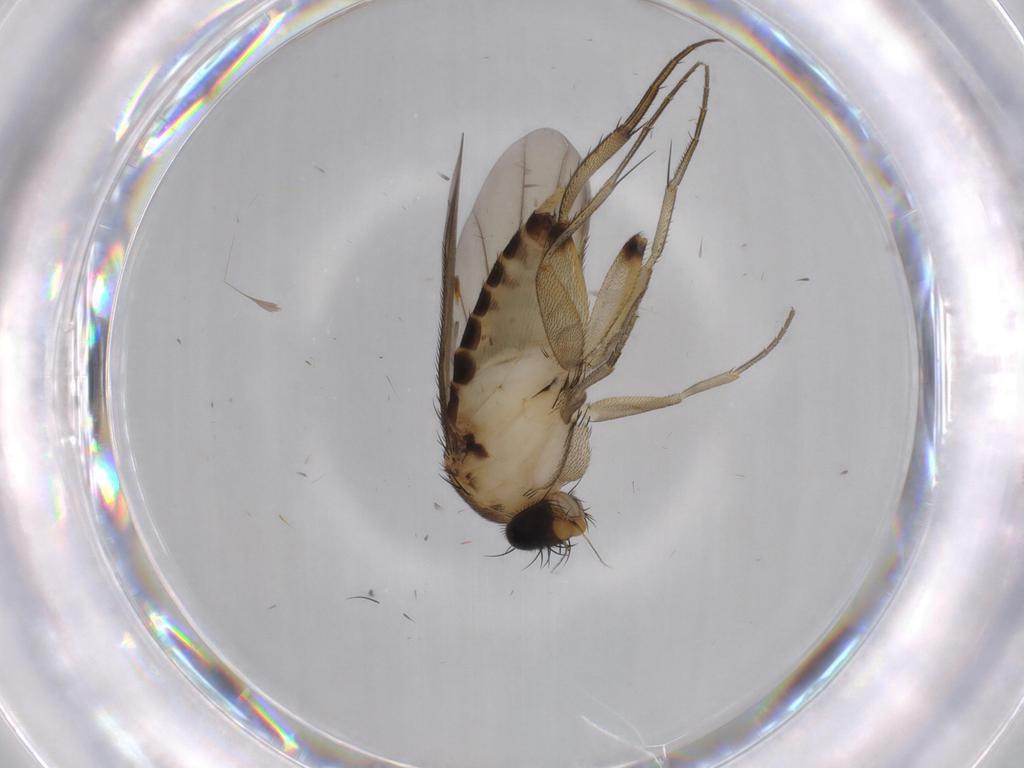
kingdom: Animalia
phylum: Arthropoda
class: Insecta
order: Diptera
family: Phoridae
